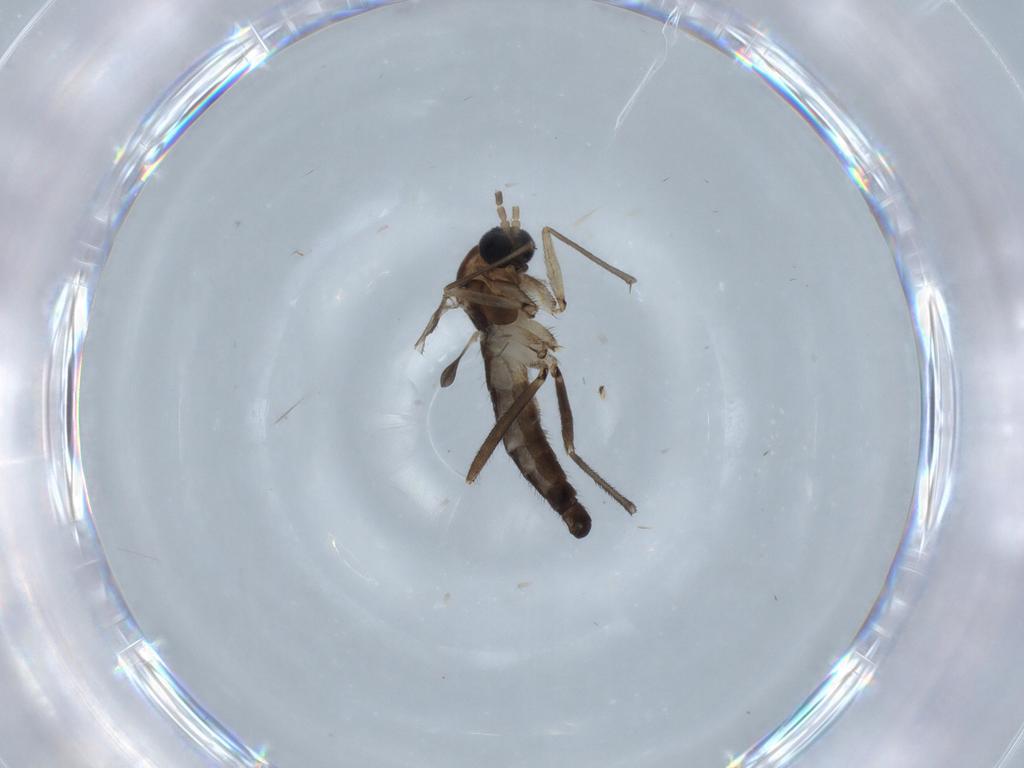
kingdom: Animalia
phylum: Arthropoda
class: Insecta
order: Diptera
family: Sciaridae
